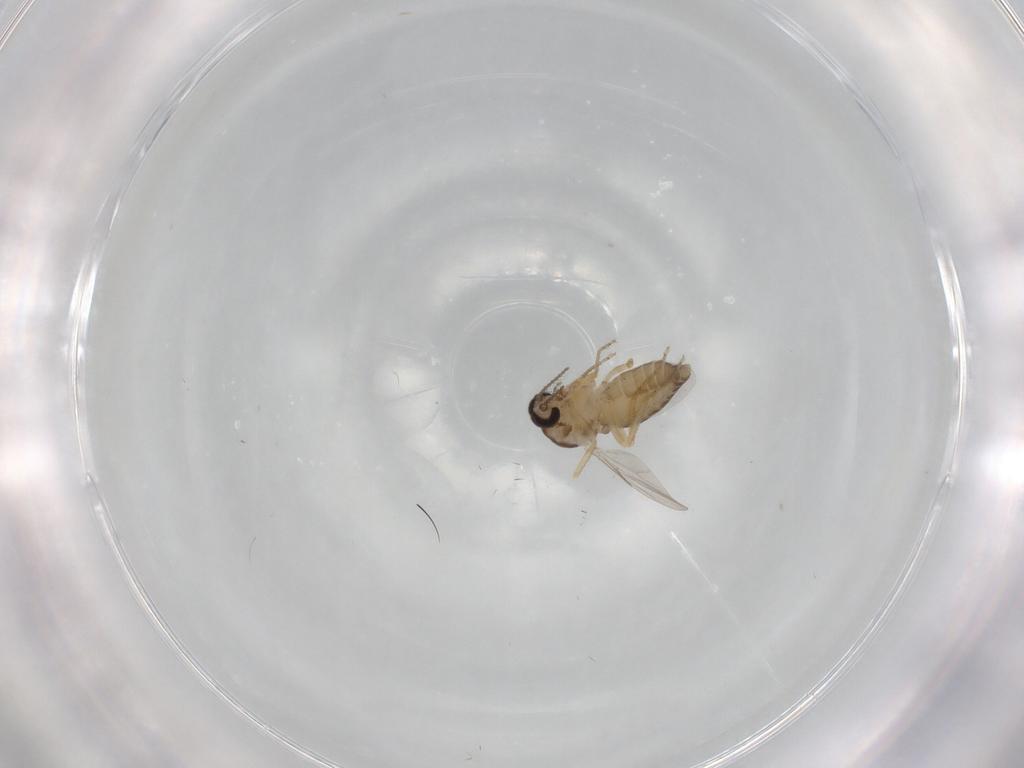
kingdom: Animalia
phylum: Arthropoda
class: Insecta
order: Diptera
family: Ceratopogonidae
